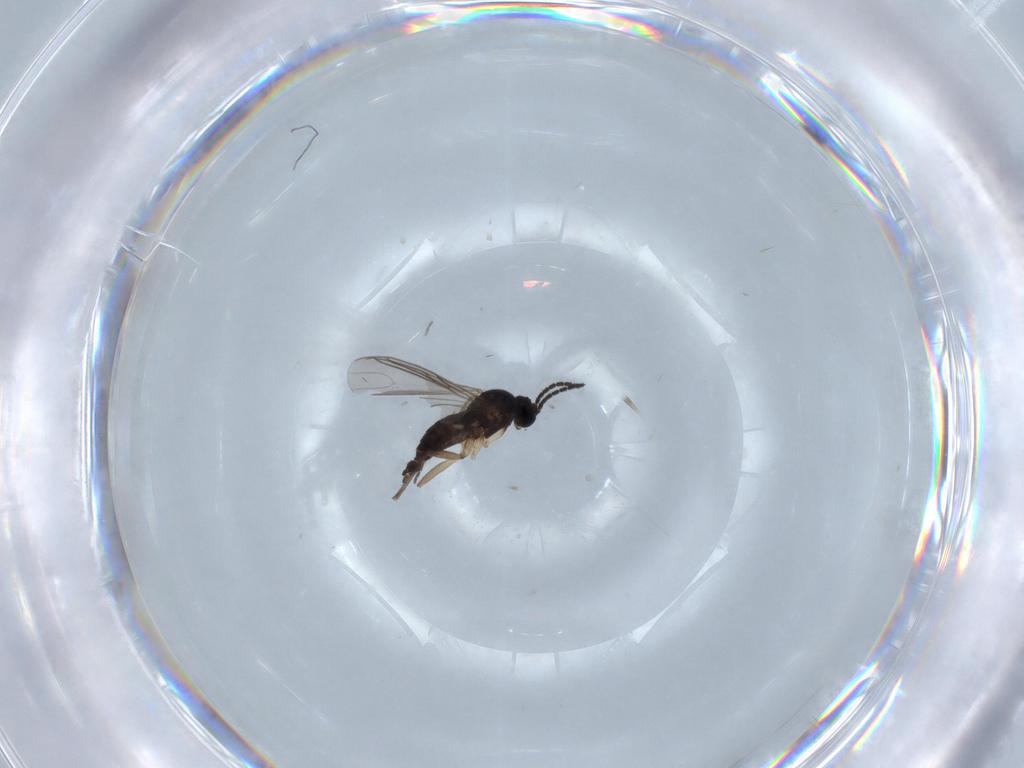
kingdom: Animalia
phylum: Arthropoda
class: Insecta
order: Diptera
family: Sciaridae
